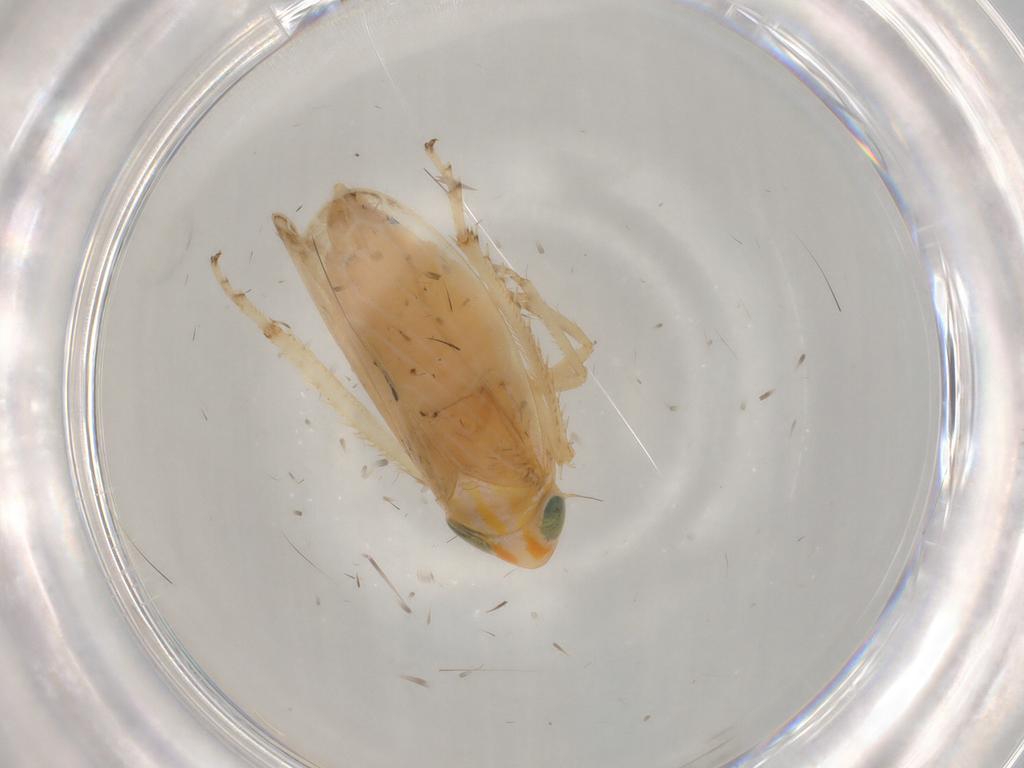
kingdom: Animalia
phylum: Arthropoda
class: Insecta
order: Hemiptera
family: Cicadellidae
